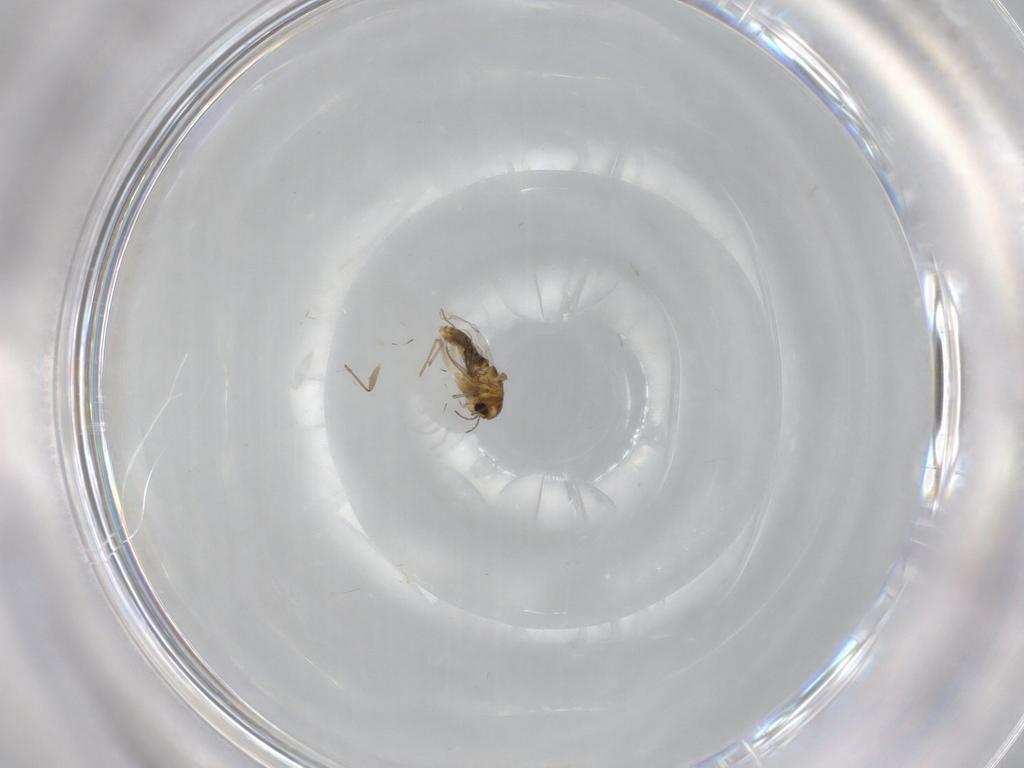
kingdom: Animalia
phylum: Arthropoda
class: Insecta
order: Diptera
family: Chironomidae
